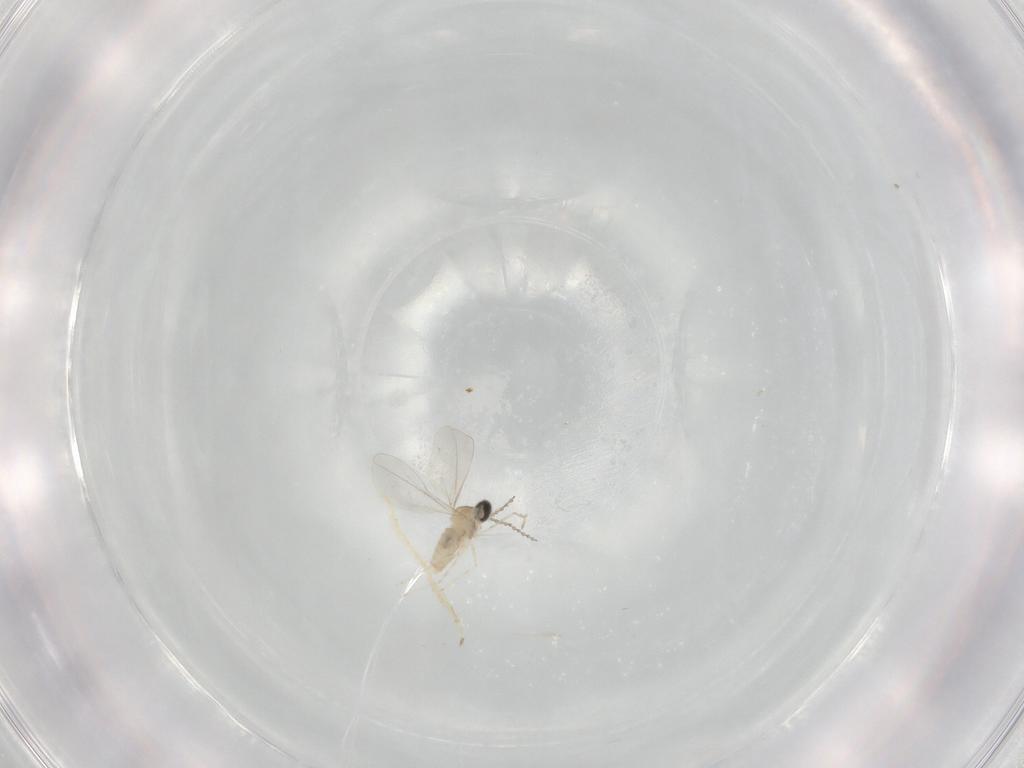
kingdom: Animalia
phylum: Arthropoda
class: Insecta
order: Diptera
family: Cecidomyiidae
